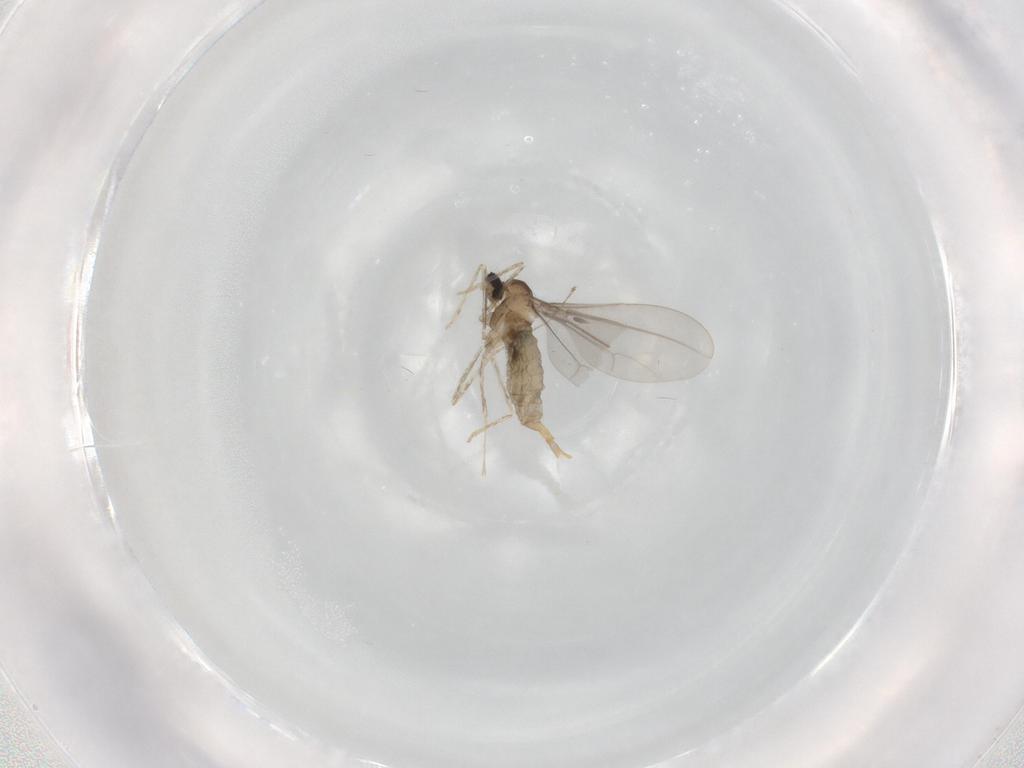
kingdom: Animalia
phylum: Arthropoda
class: Insecta
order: Diptera
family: Cecidomyiidae
